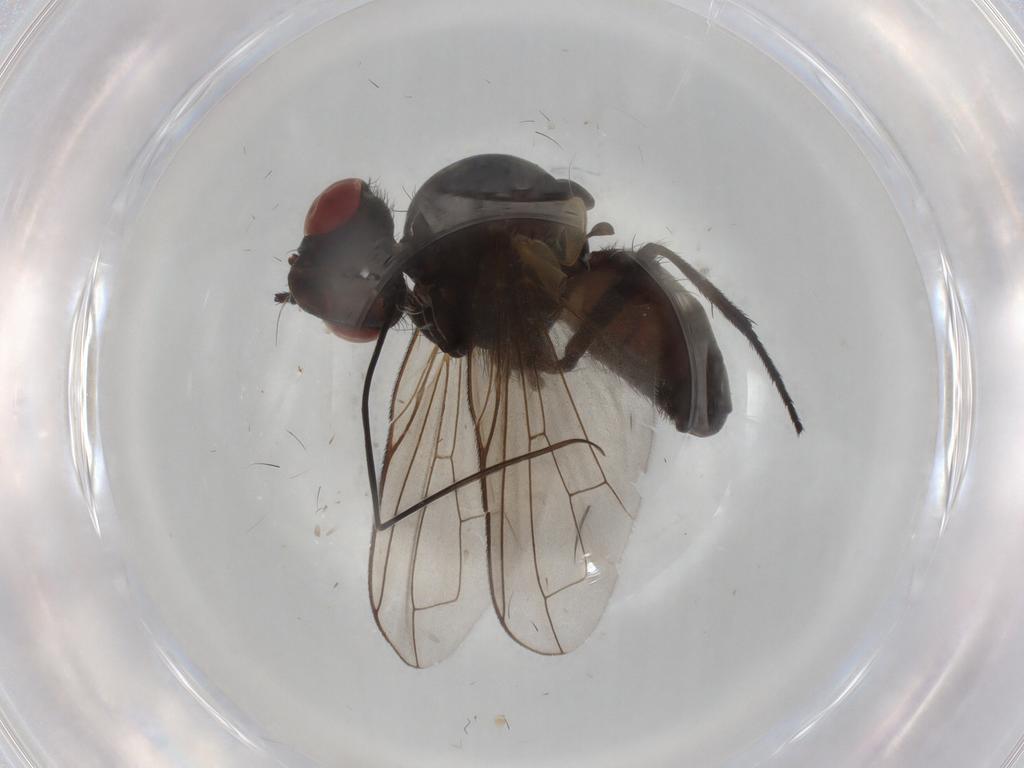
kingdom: Animalia
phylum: Arthropoda
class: Insecta
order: Diptera
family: Tachinidae
